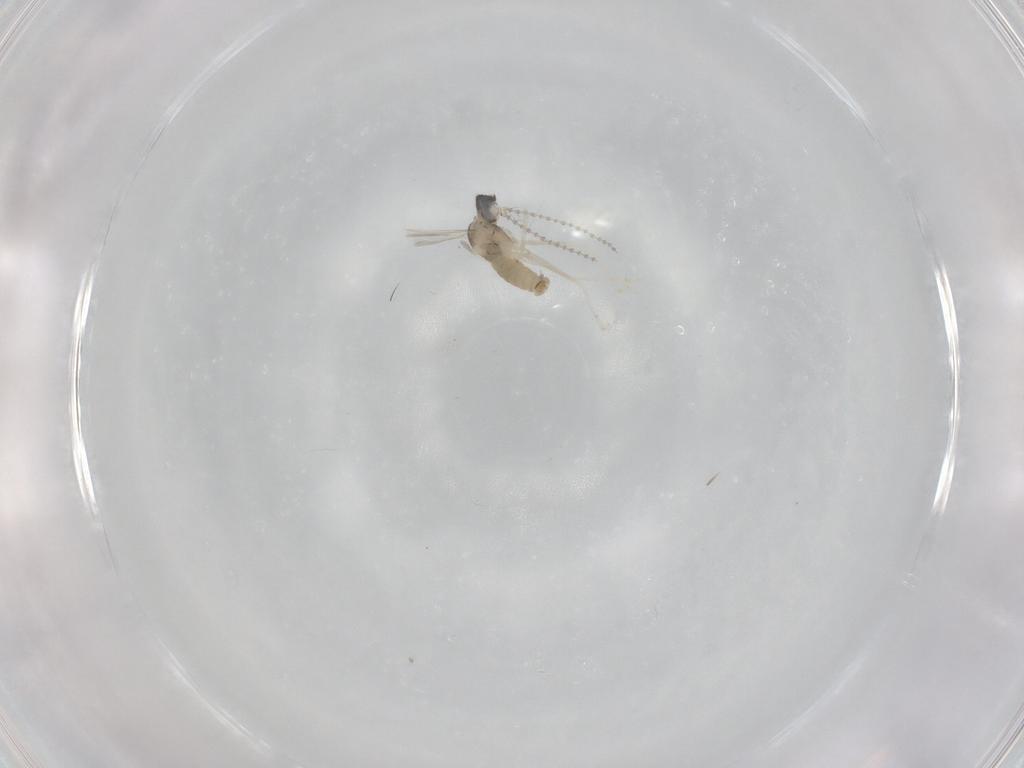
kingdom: Animalia
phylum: Arthropoda
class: Insecta
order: Diptera
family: Cecidomyiidae
